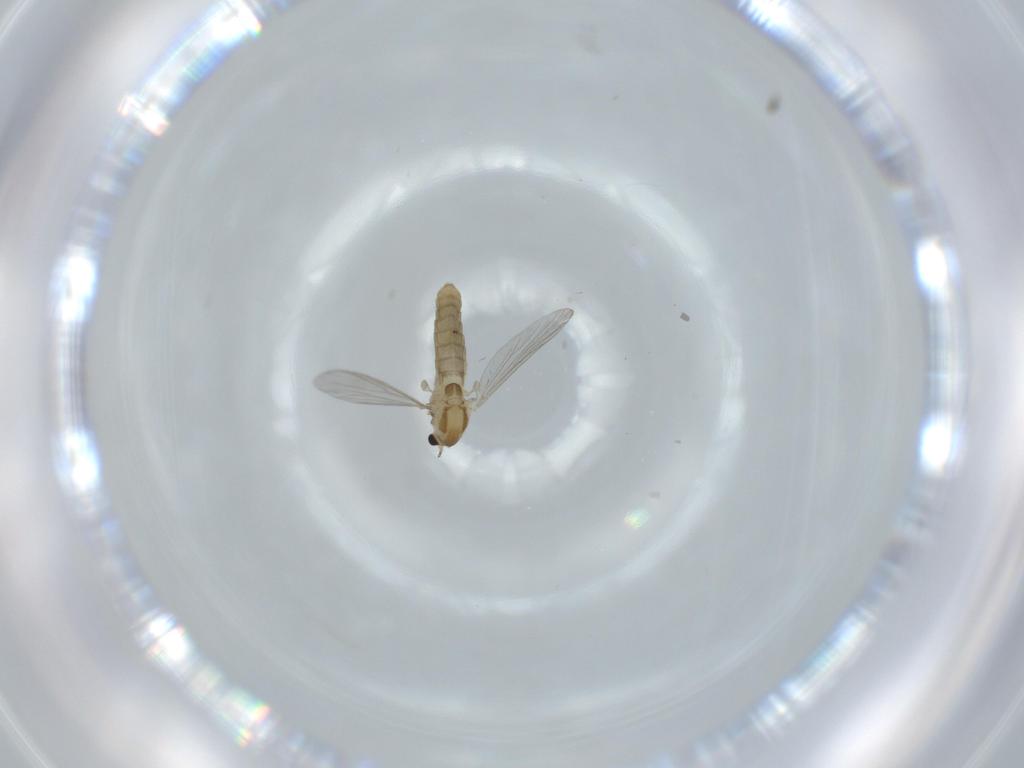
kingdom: Animalia
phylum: Arthropoda
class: Insecta
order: Diptera
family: Chironomidae
